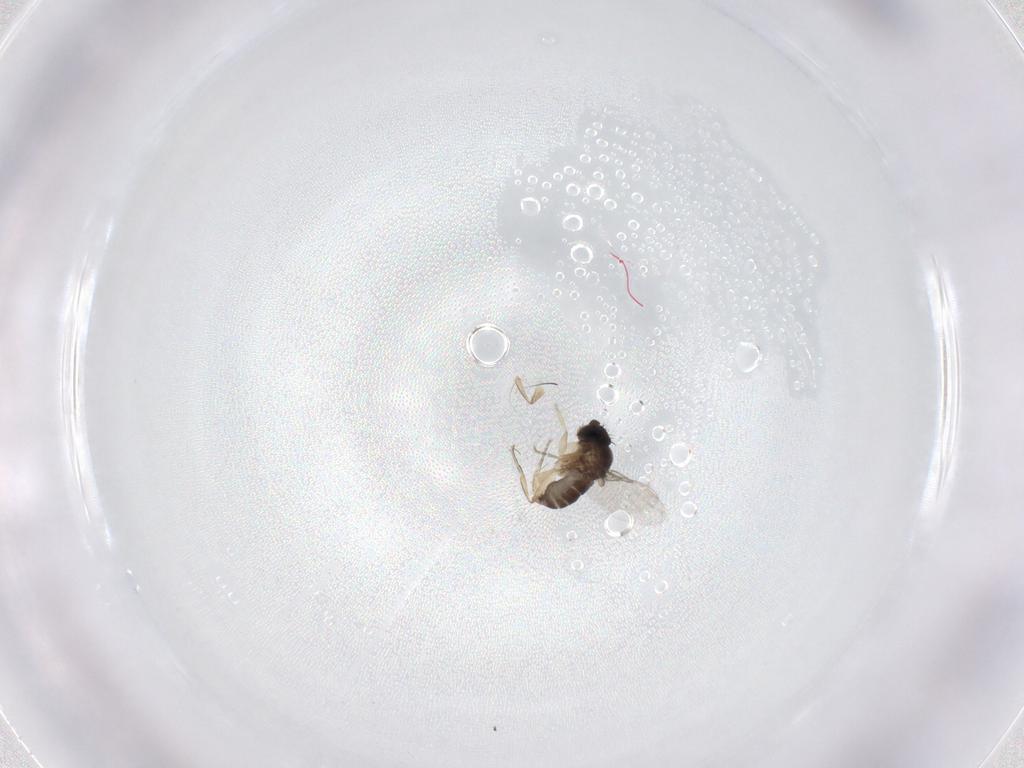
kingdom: Animalia
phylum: Arthropoda
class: Insecta
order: Diptera
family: Phoridae
